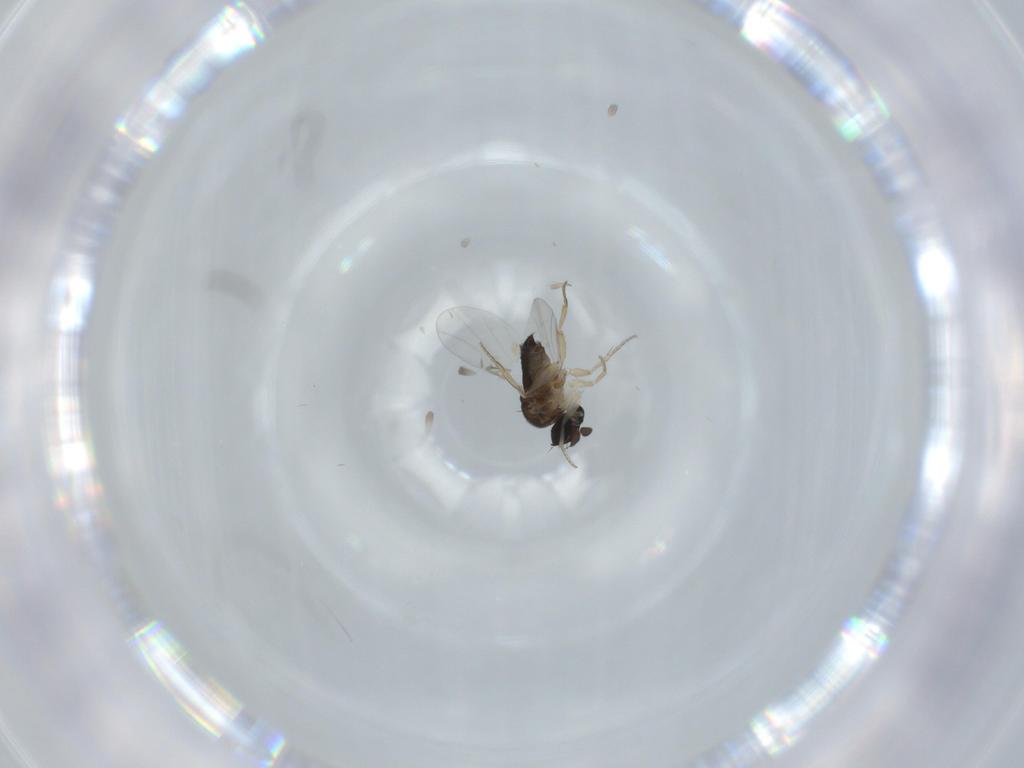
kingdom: Animalia
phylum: Arthropoda
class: Insecta
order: Diptera
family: Phoridae
